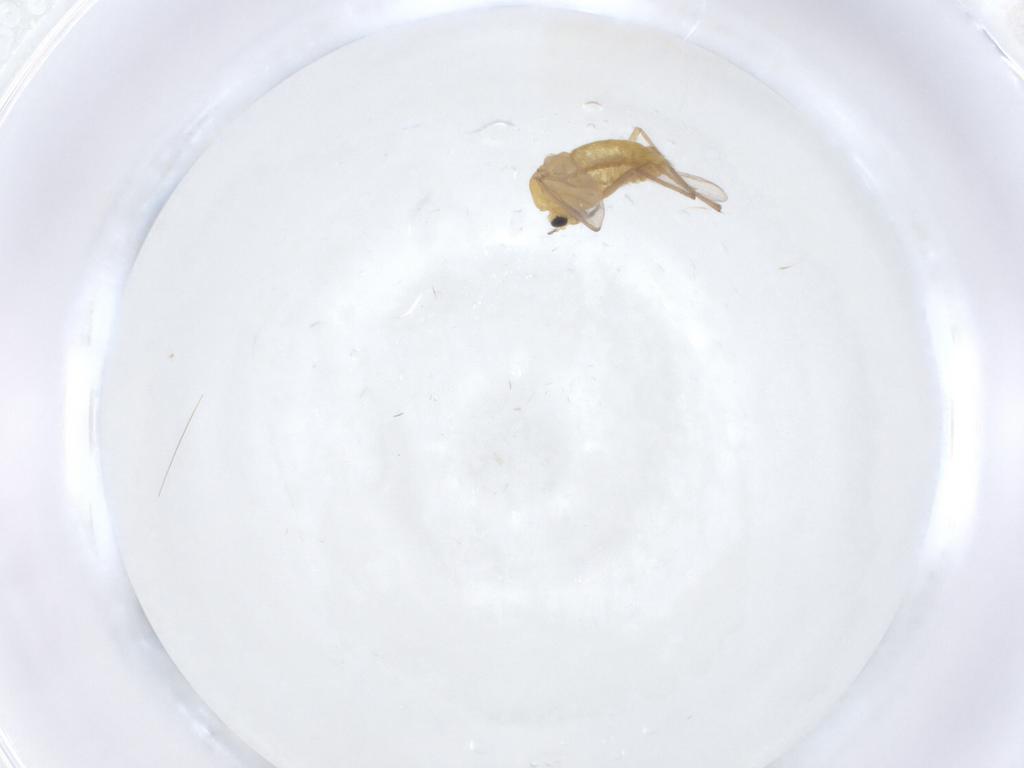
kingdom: Animalia
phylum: Arthropoda
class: Insecta
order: Diptera
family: Chironomidae
